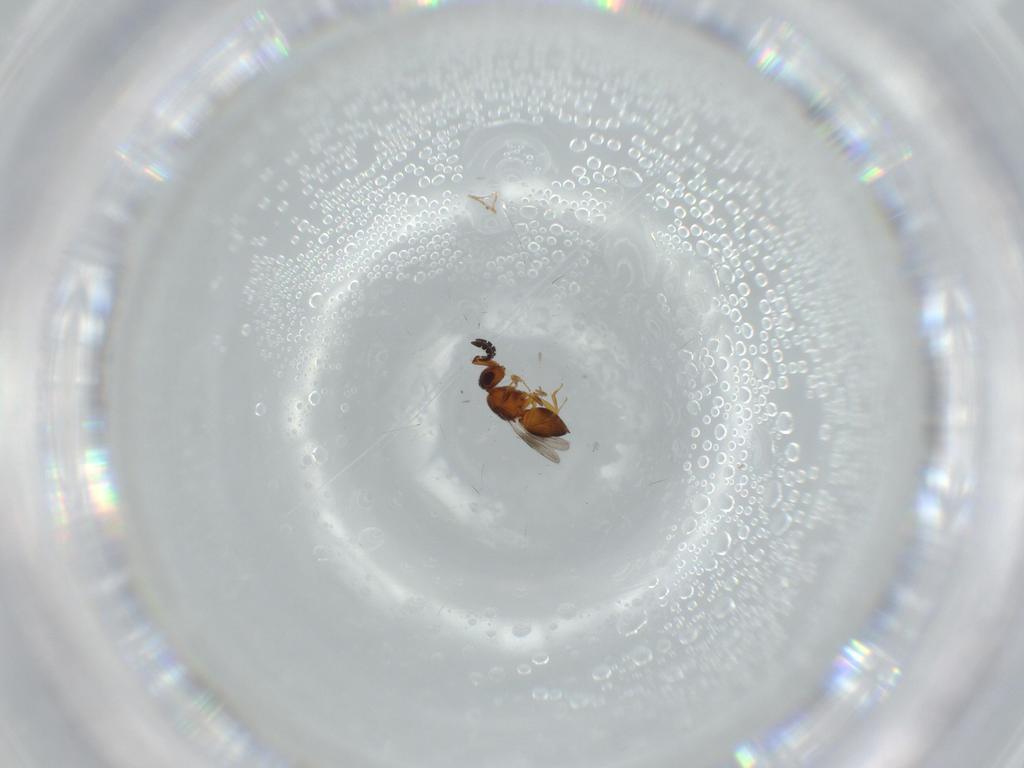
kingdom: Animalia
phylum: Arthropoda
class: Insecta
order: Hymenoptera
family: Ceraphronidae
